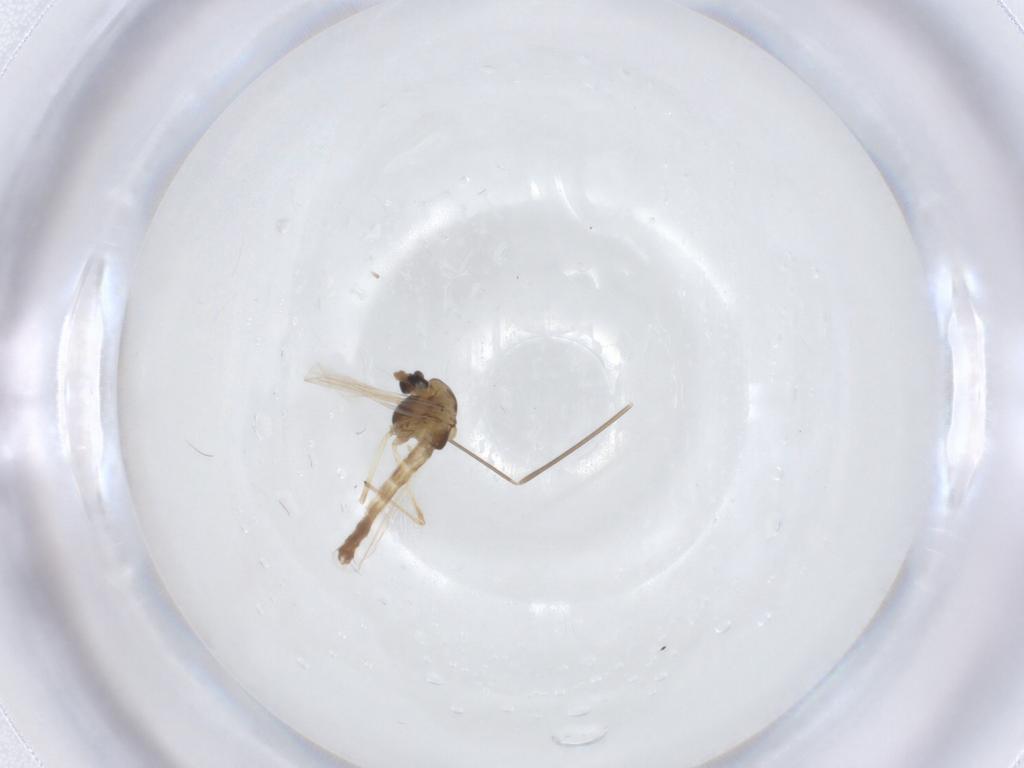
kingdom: Animalia
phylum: Arthropoda
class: Insecta
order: Diptera
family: Chironomidae
